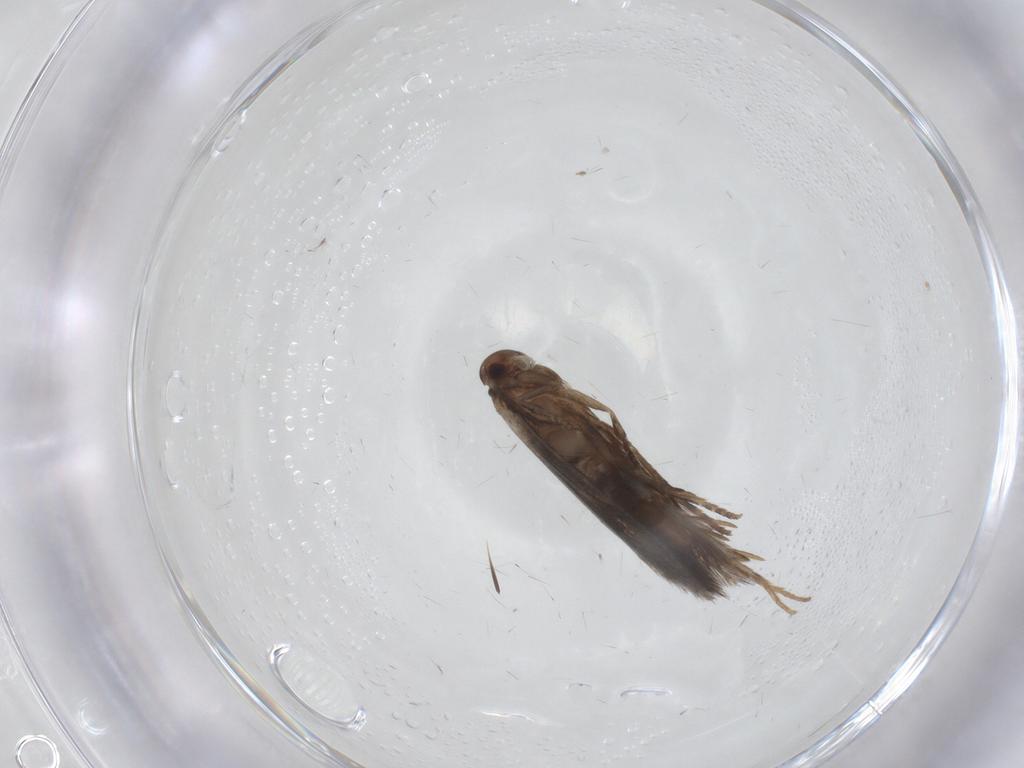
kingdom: Animalia
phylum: Arthropoda
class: Insecta
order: Lepidoptera
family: Elachistidae
